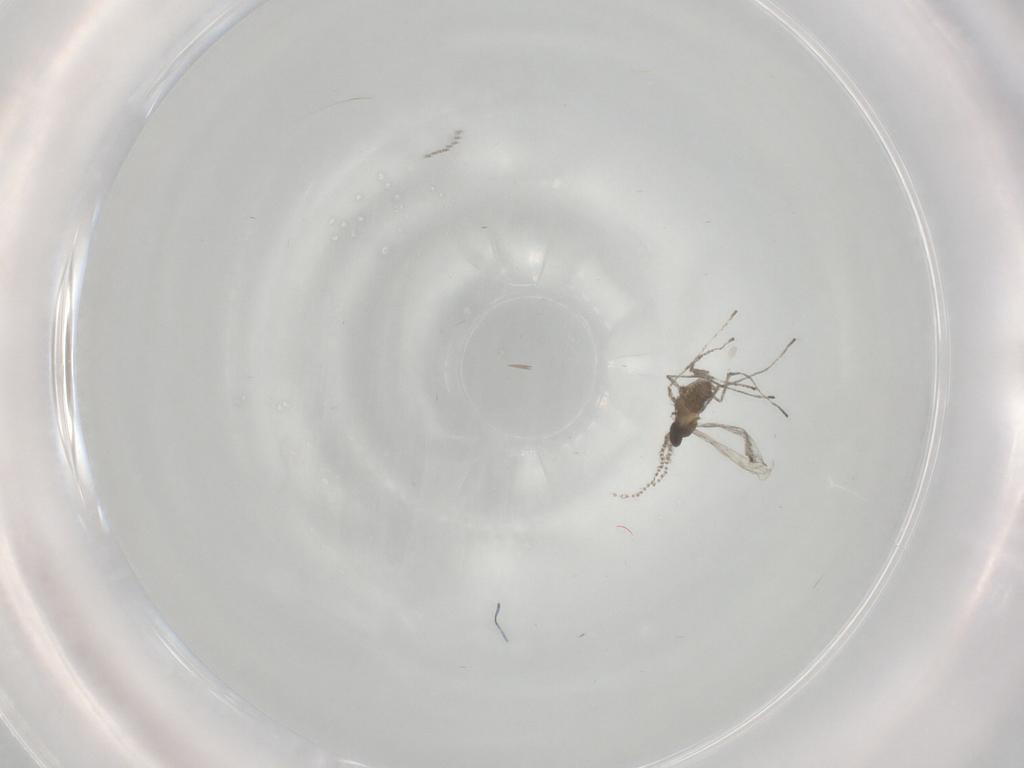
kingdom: Animalia
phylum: Arthropoda
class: Insecta
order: Diptera
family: Cecidomyiidae
